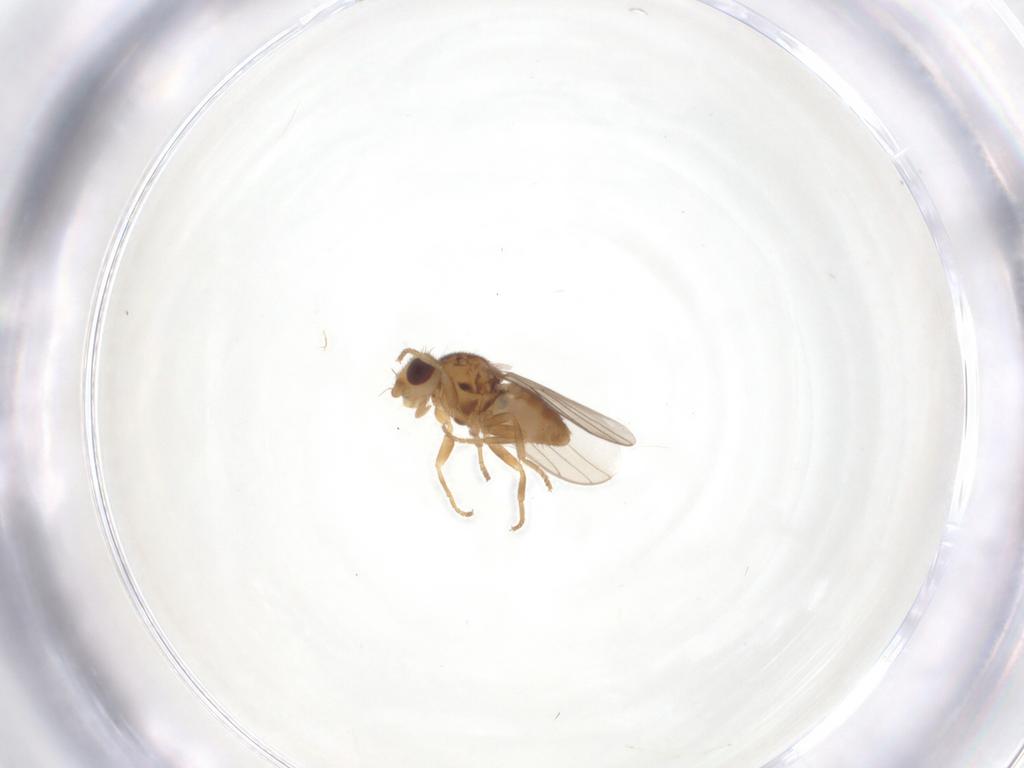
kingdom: Animalia
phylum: Arthropoda
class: Insecta
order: Diptera
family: Chloropidae
